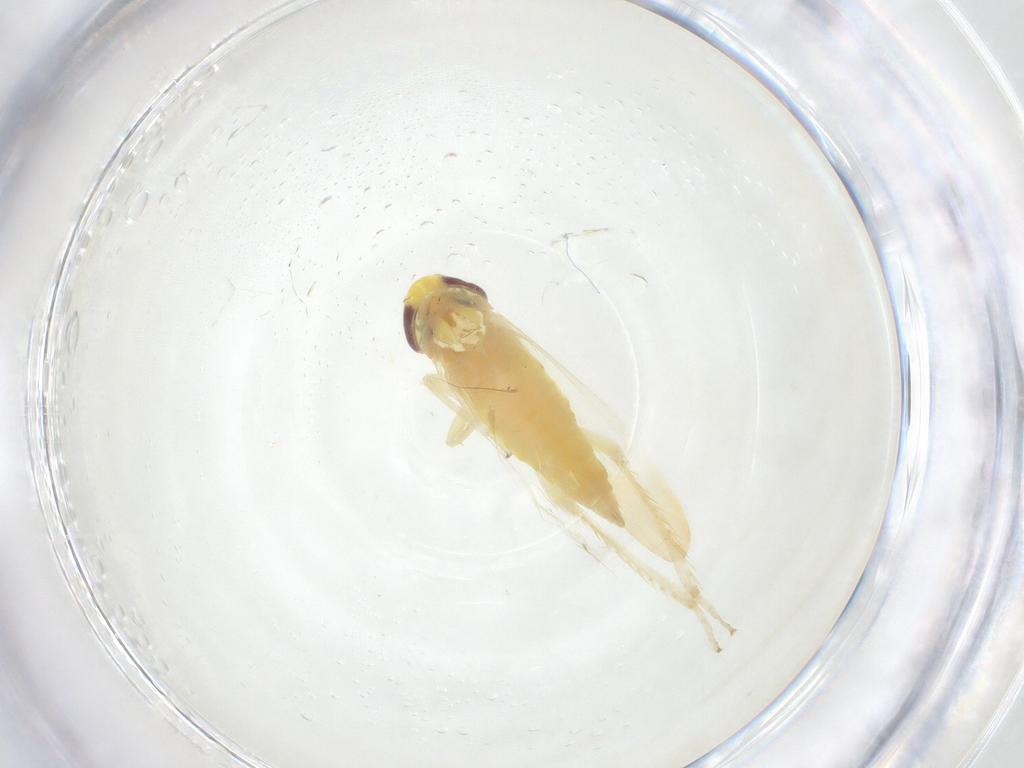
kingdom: Animalia
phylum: Arthropoda
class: Insecta
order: Hemiptera
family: Cicadellidae
